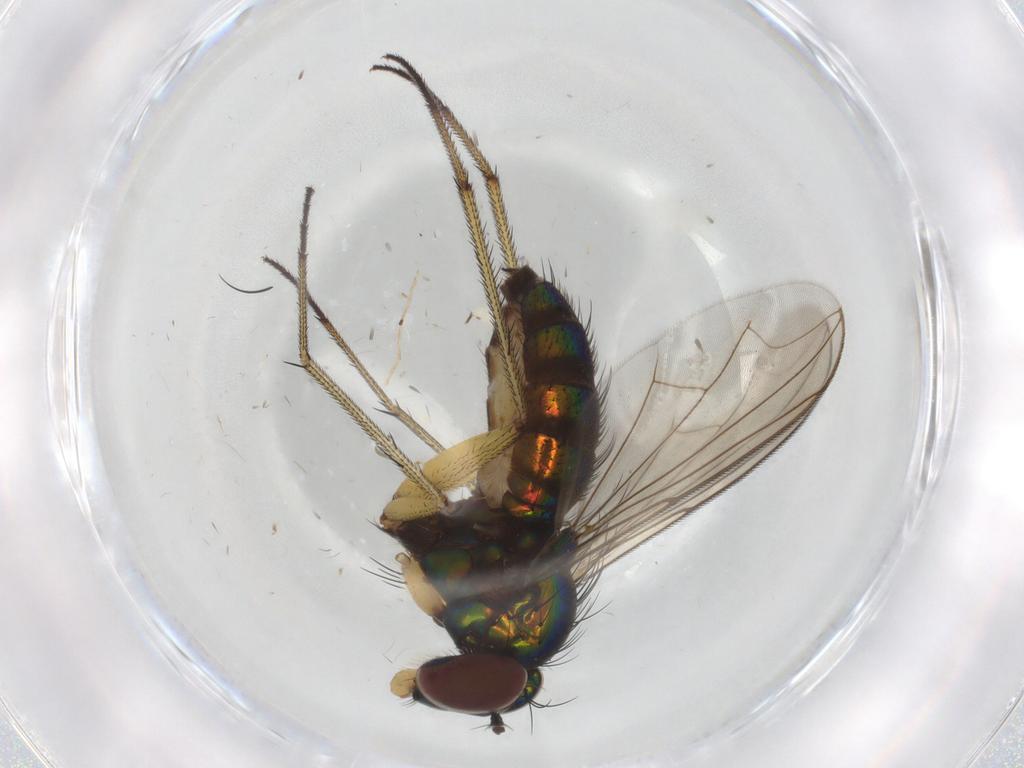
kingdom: Animalia
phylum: Arthropoda
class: Insecta
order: Diptera
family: Dolichopodidae
